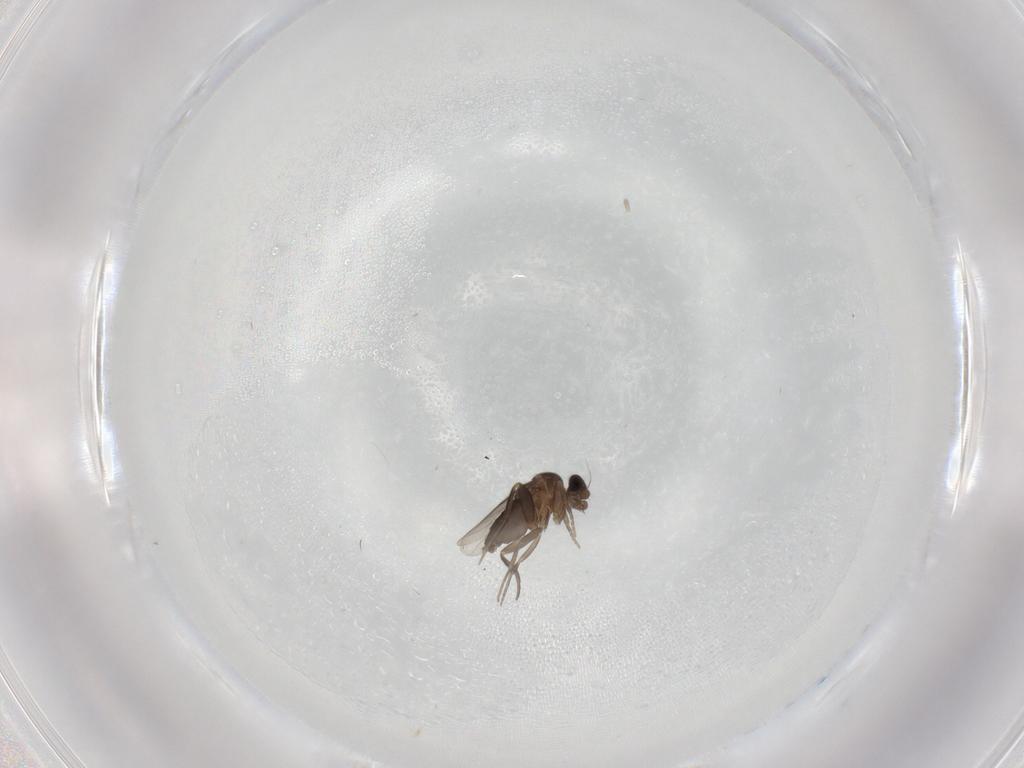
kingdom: Animalia
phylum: Arthropoda
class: Insecta
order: Diptera
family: Phoridae
